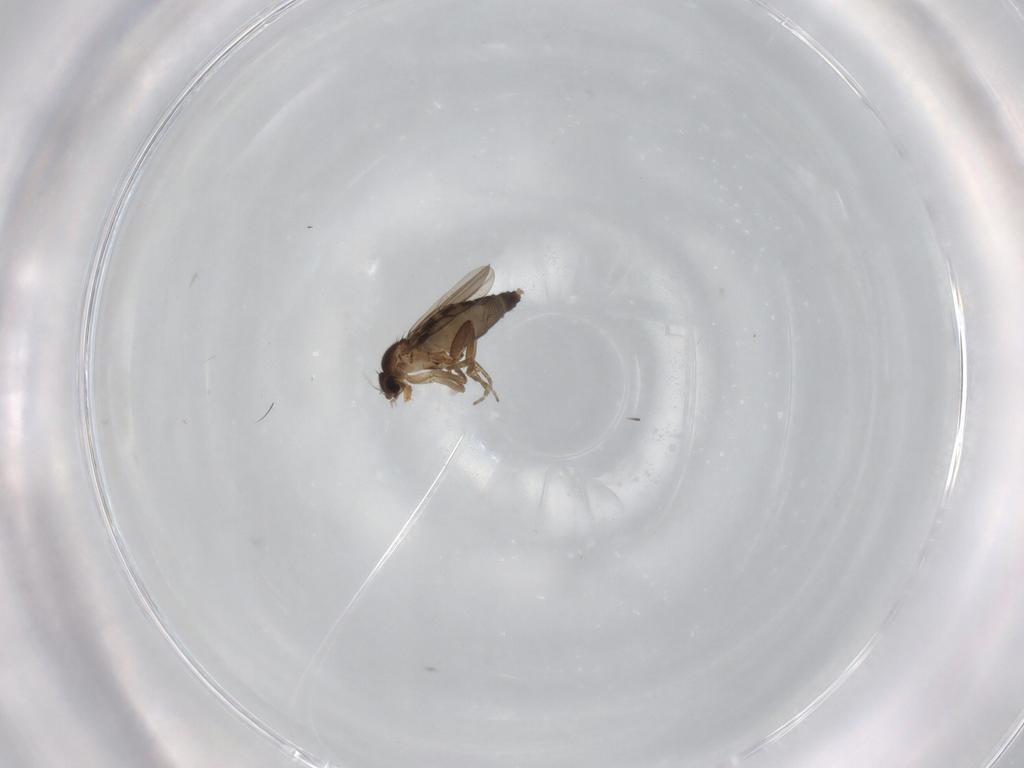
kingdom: Animalia
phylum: Arthropoda
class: Insecta
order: Diptera
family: Phoridae
